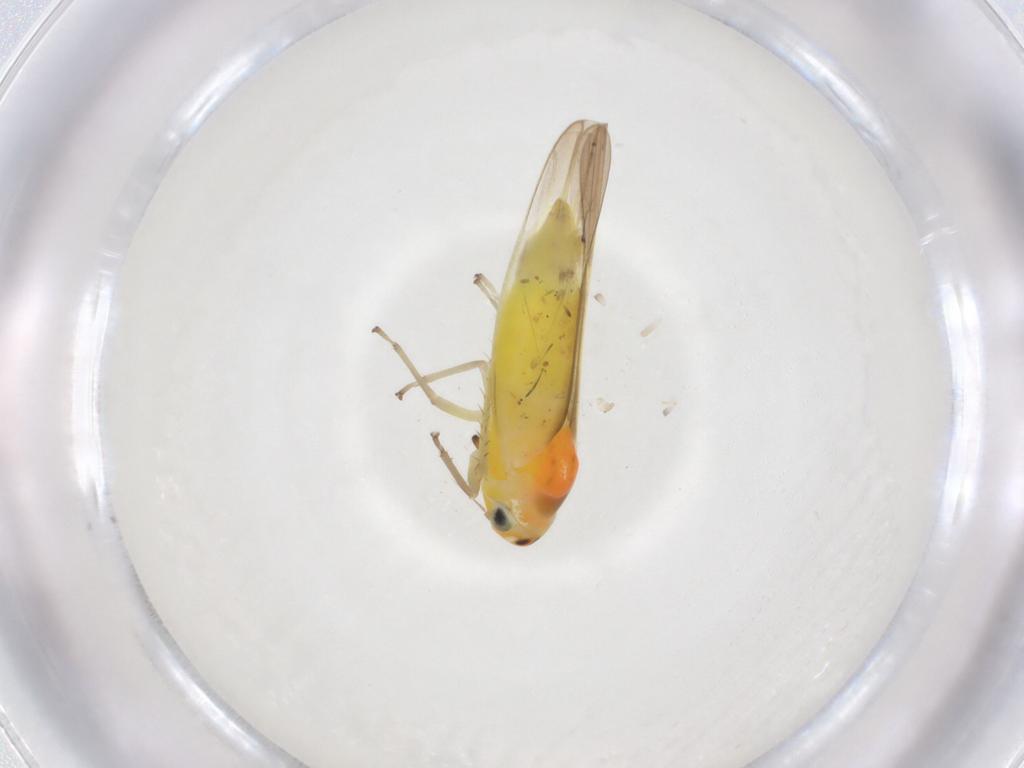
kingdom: Animalia
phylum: Arthropoda
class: Insecta
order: Hemiptera
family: Cicadellidae
